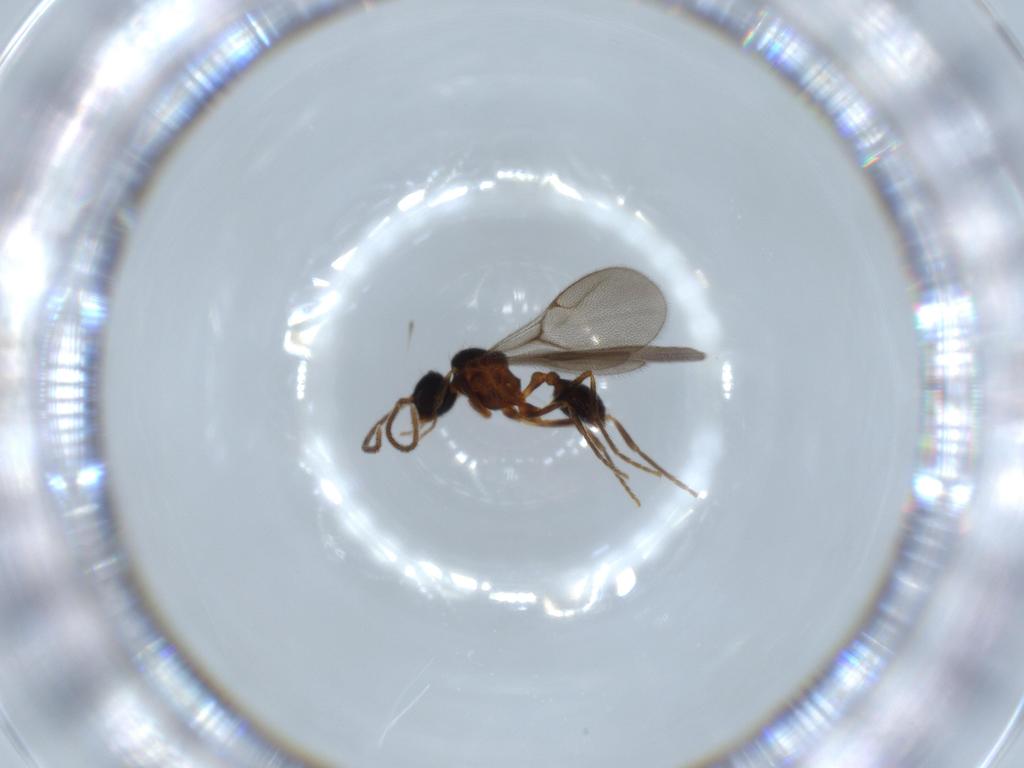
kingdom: Animalia
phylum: Arthropoda
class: Insecta
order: Hymenoptera
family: Formicidae
